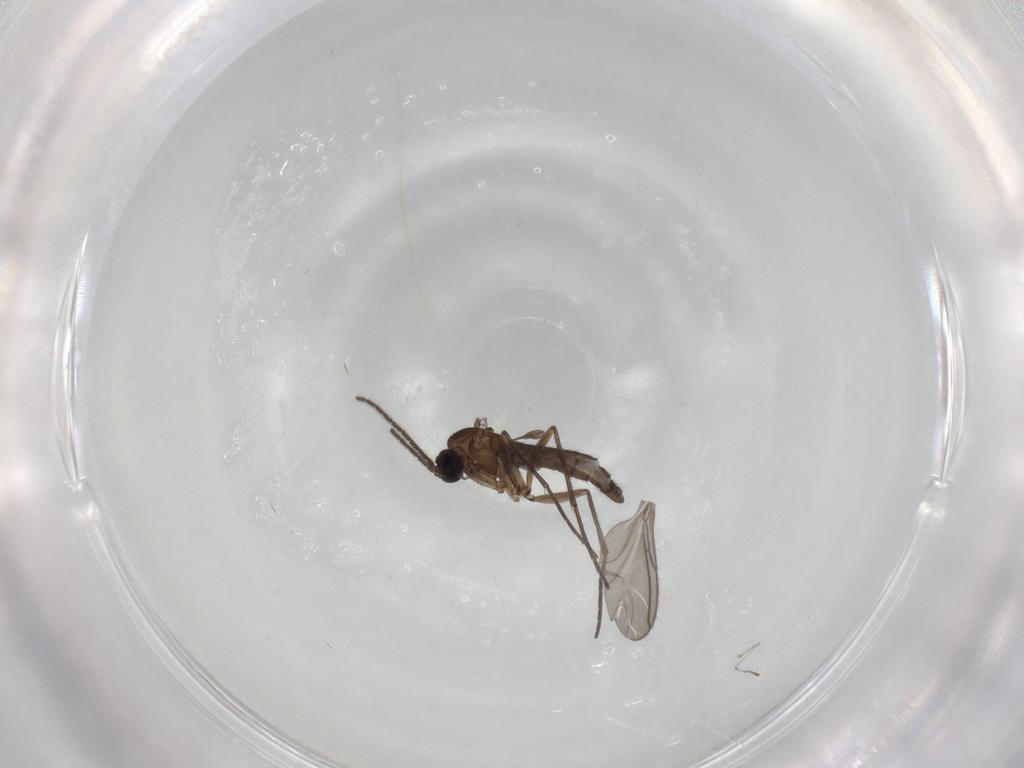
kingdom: Animalia
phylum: Arthropoda
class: Insecta
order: Diptera
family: Sciaridae
